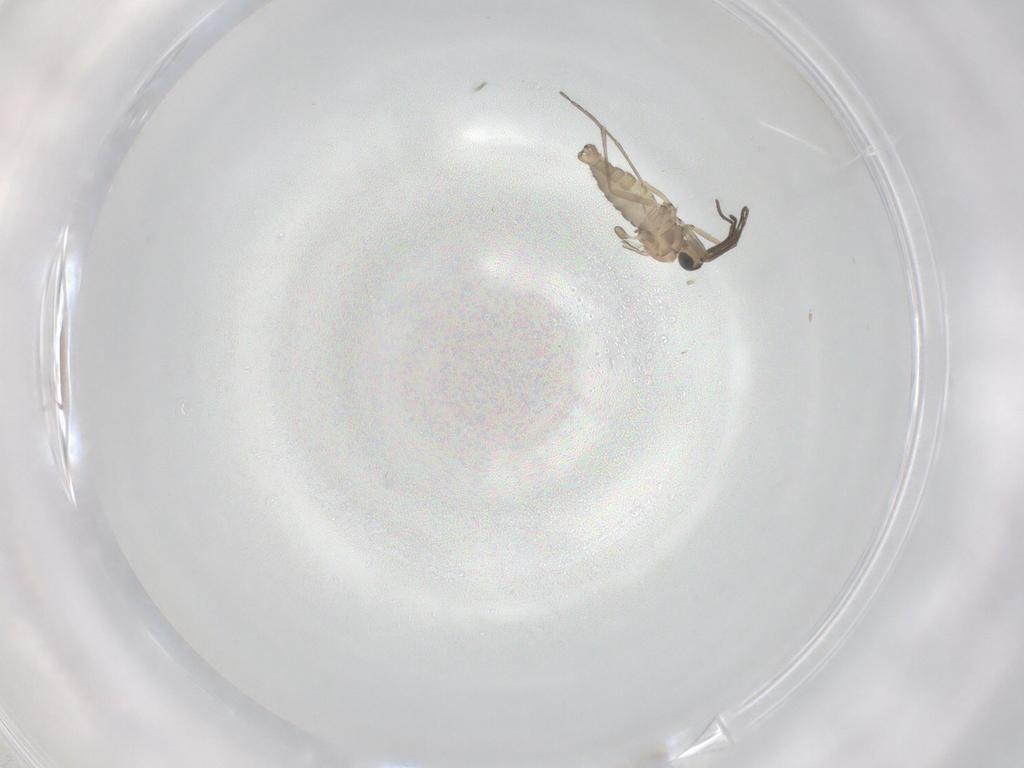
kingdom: Animalia
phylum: Arthropoda
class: Insecta
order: Diptera
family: Sciaridae
